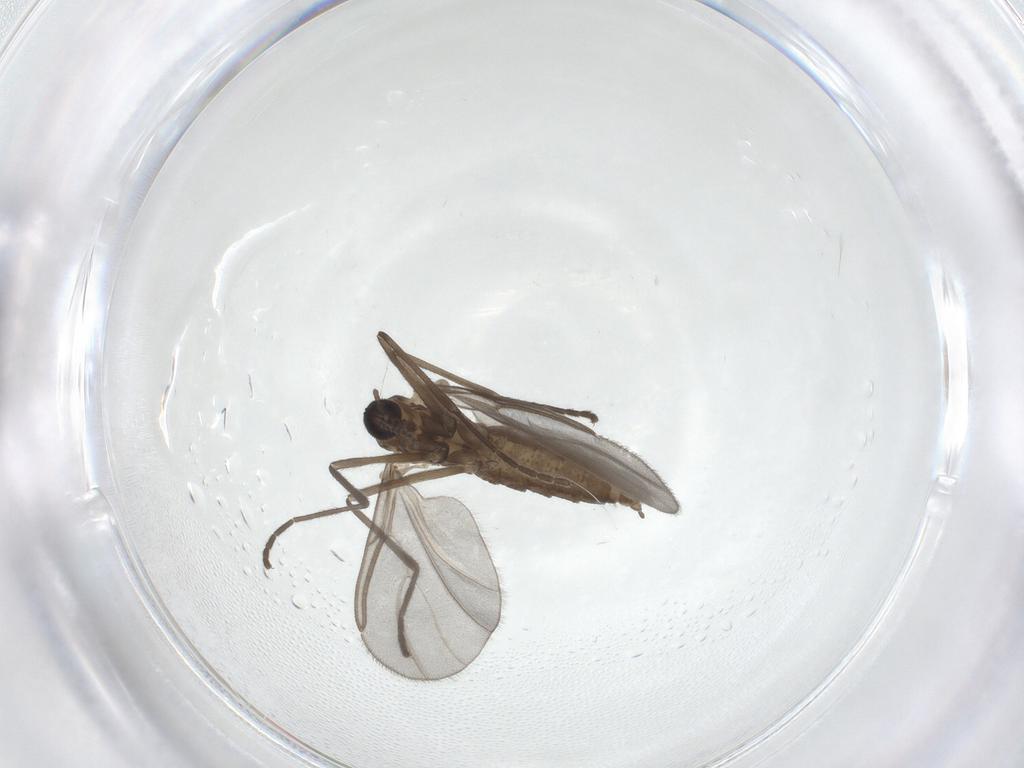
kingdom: Animalia
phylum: Arthropoda
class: Insecta
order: Diptera
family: Cecidomyiidae
